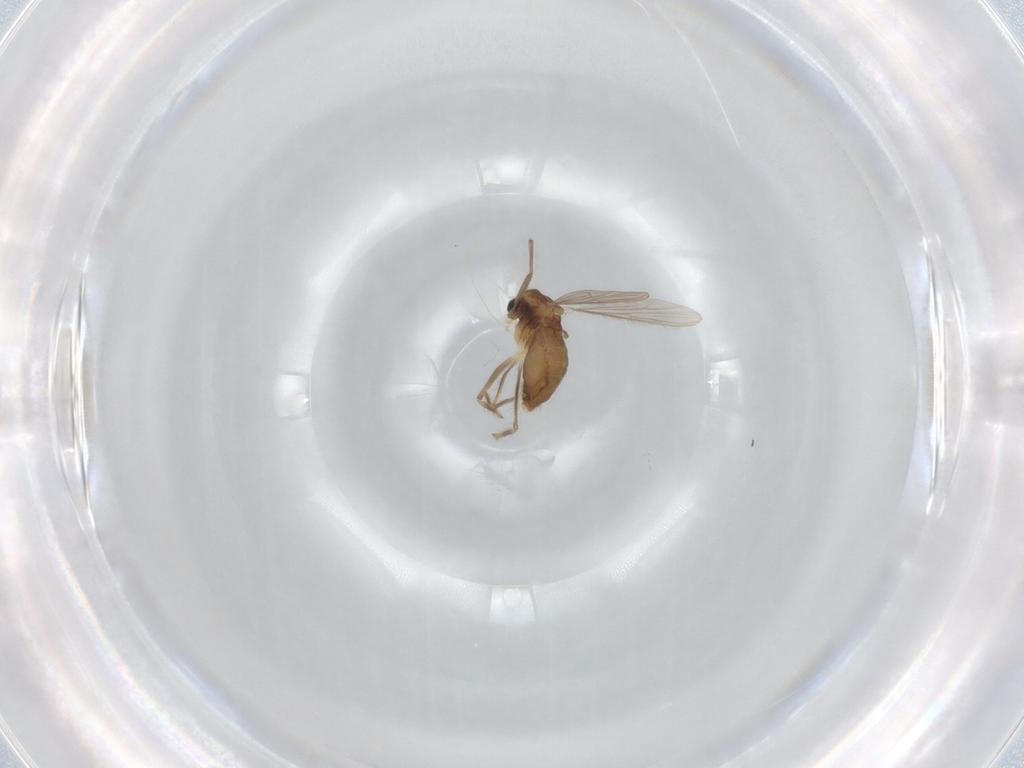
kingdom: Animalia
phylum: Arthropoda
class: Insecta
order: Diptera
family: Chironomidae
